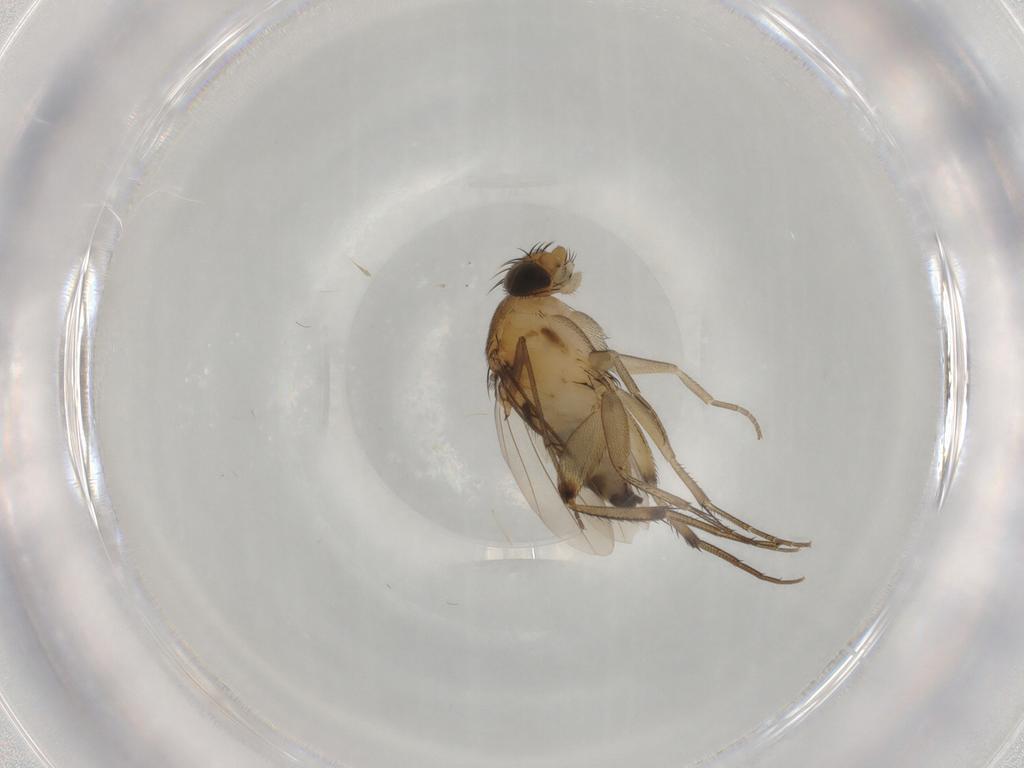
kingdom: Animalia
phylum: Arthropoda
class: Insecta
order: Diptera
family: Phoridae
